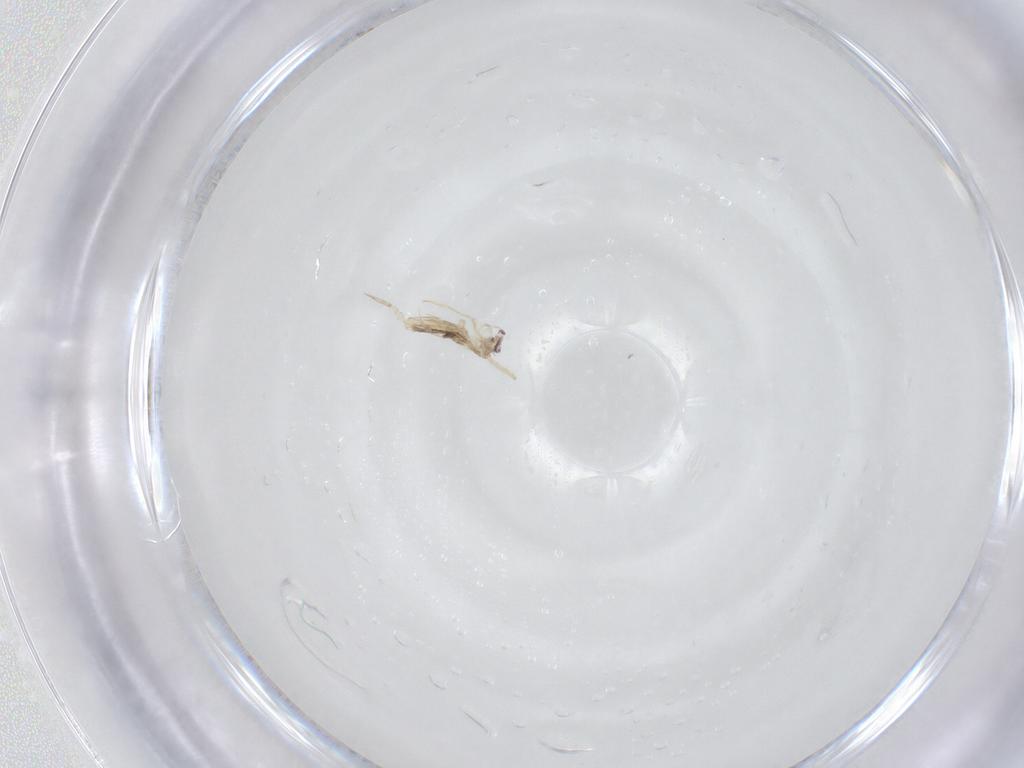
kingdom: Animalia
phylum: Arthropoda
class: Collembola
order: Entomobryomorpha
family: Entomobryidae
